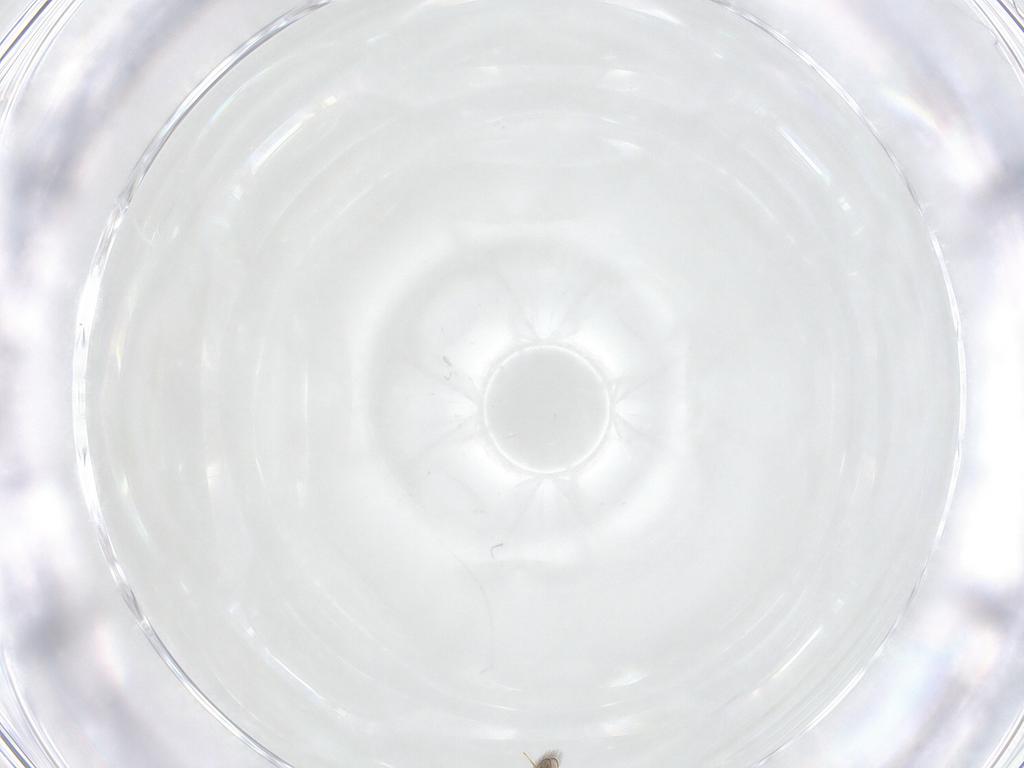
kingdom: Animalia
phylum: Arthropoda
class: Insecta
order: Hymenoptera
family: Platygastridae
